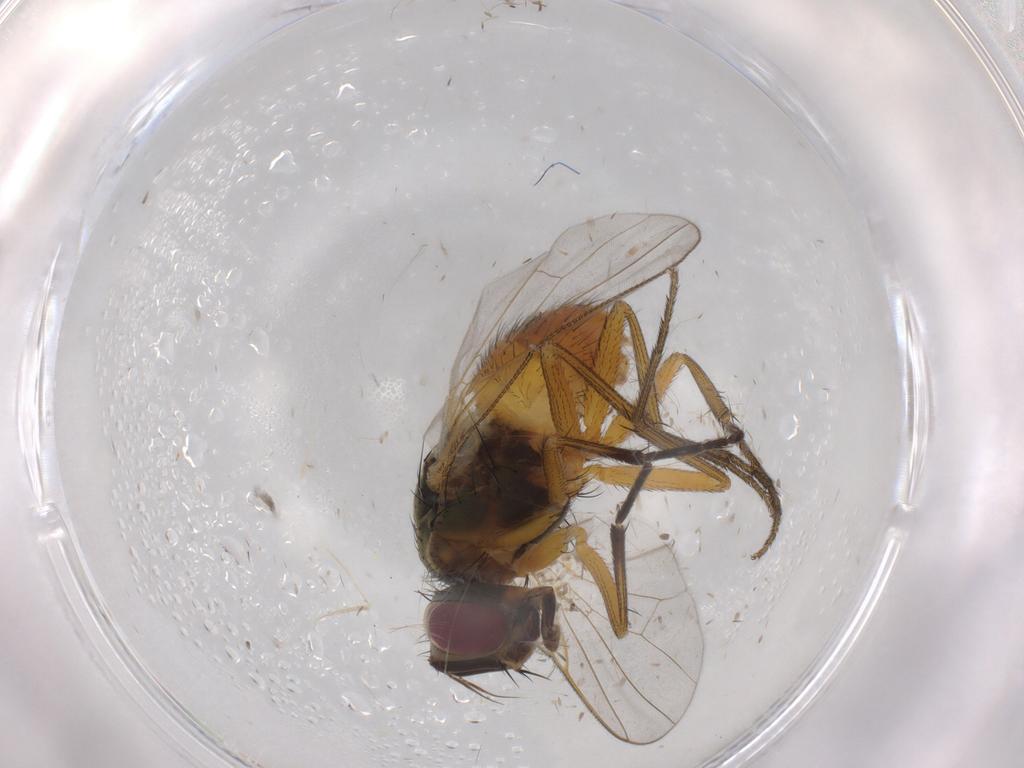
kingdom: Animalia
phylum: Arthropoda
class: Insecta
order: Diptera
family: Muscidae
